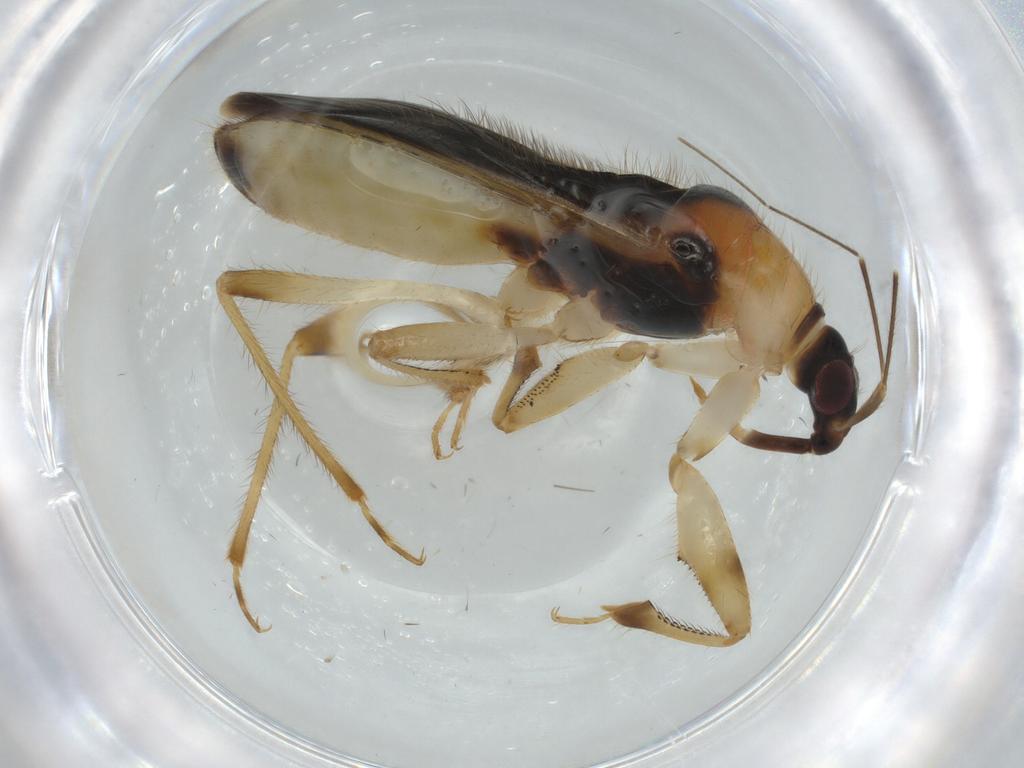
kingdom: Animalia
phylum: Arthropoda
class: Insecta
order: Hemiptera
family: Nabidae
